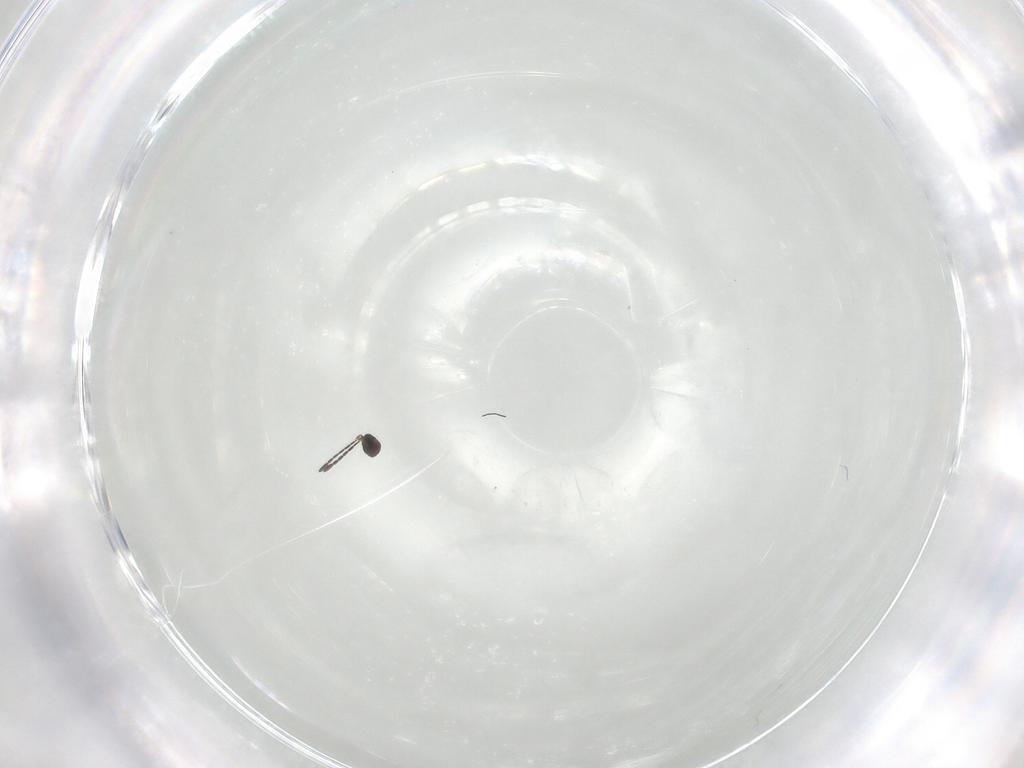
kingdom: Animalia
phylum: Arthropoda
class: Insecta
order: Hymenoptera
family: Mymaridae
